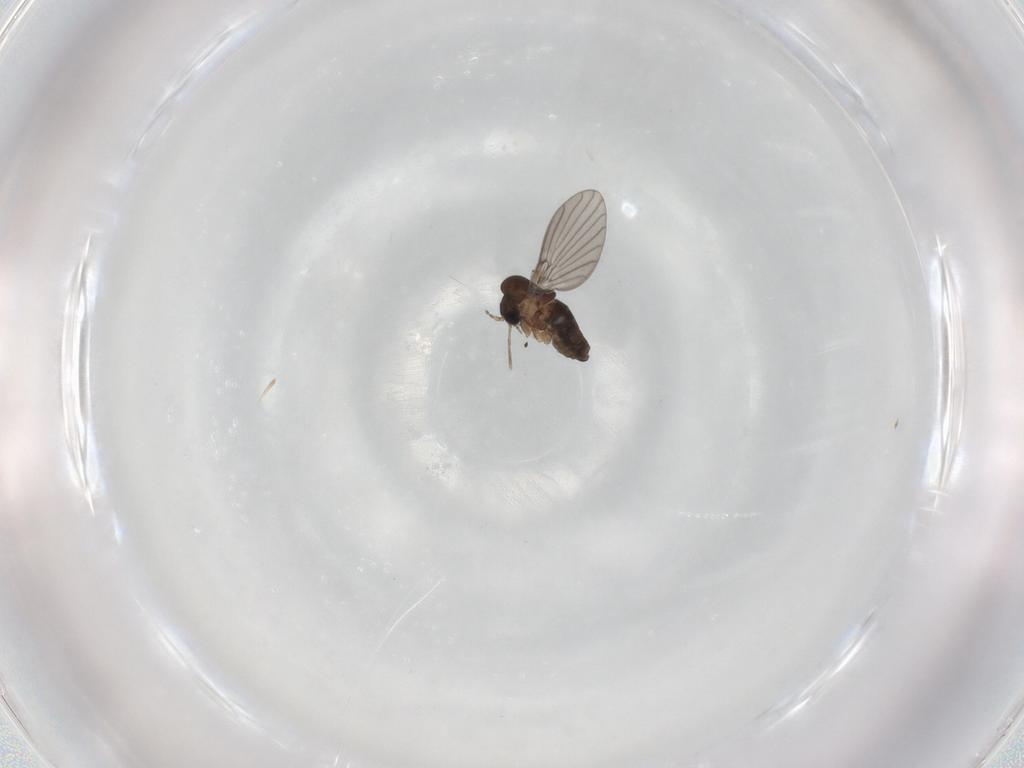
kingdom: Animalia
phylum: Arthropoda
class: Insecta
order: Diptera
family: Psychodidae
